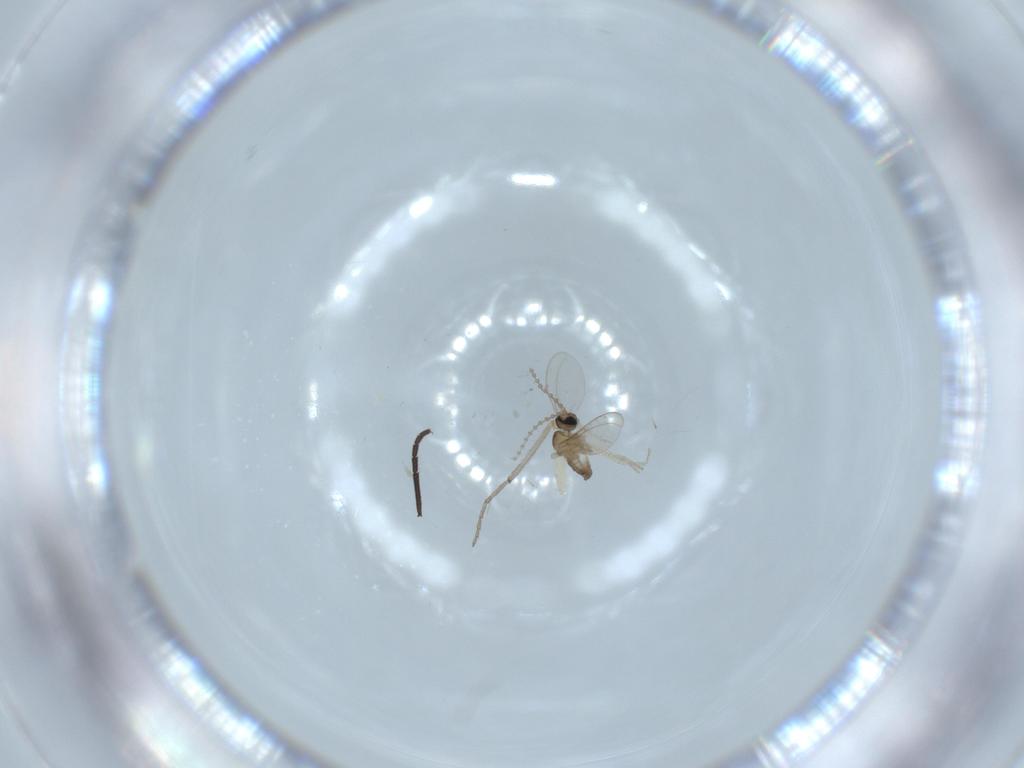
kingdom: Animalia
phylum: Arthropoda
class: Insecta
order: Diptera
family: Cecidomyiidae
